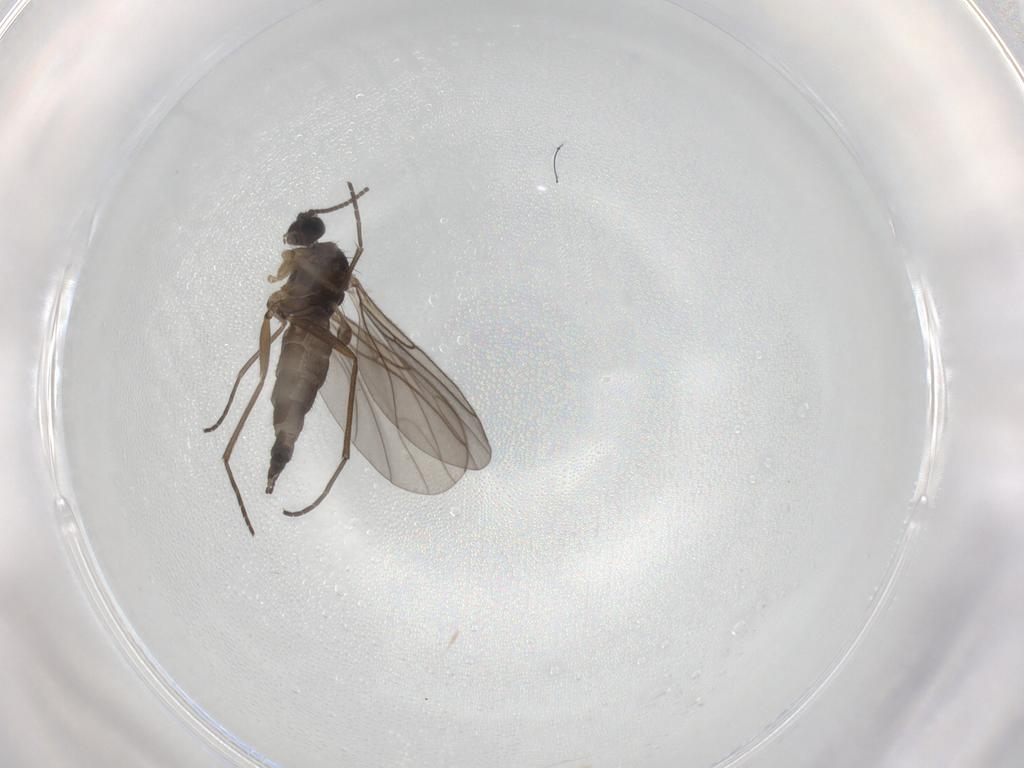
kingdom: Animalia
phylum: Arthropoda
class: Insecta
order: Diptera
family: Sciaridae
